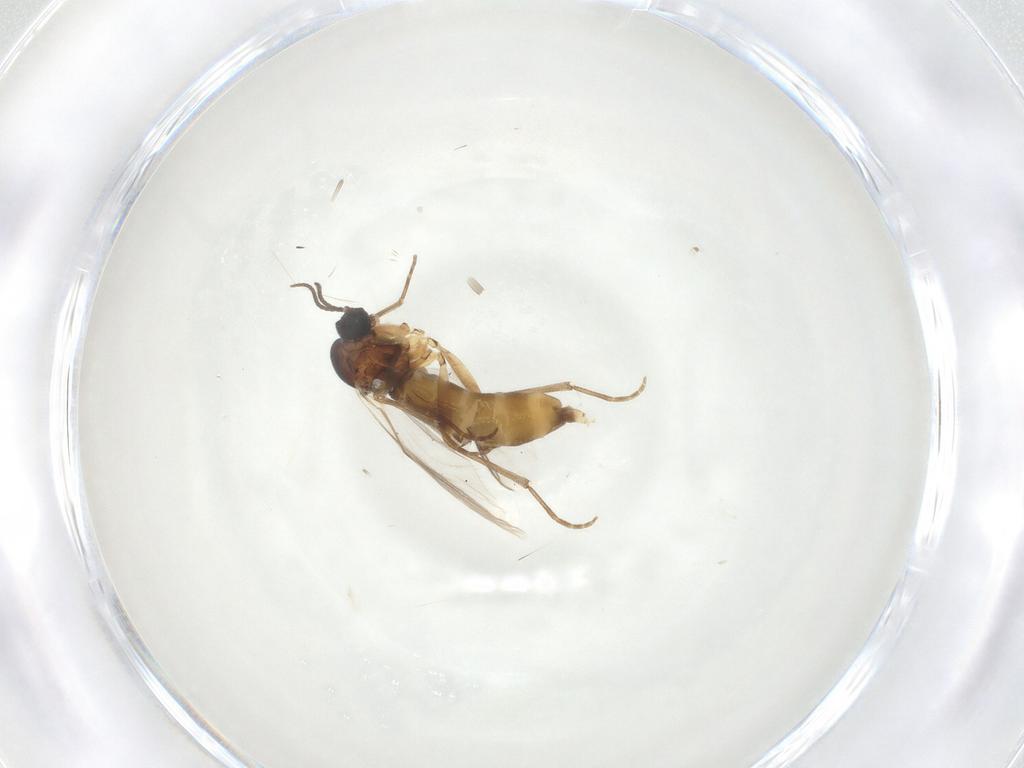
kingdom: Animalia
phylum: Arthropoda
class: Insecta
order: Diptera
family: Sciaridae
